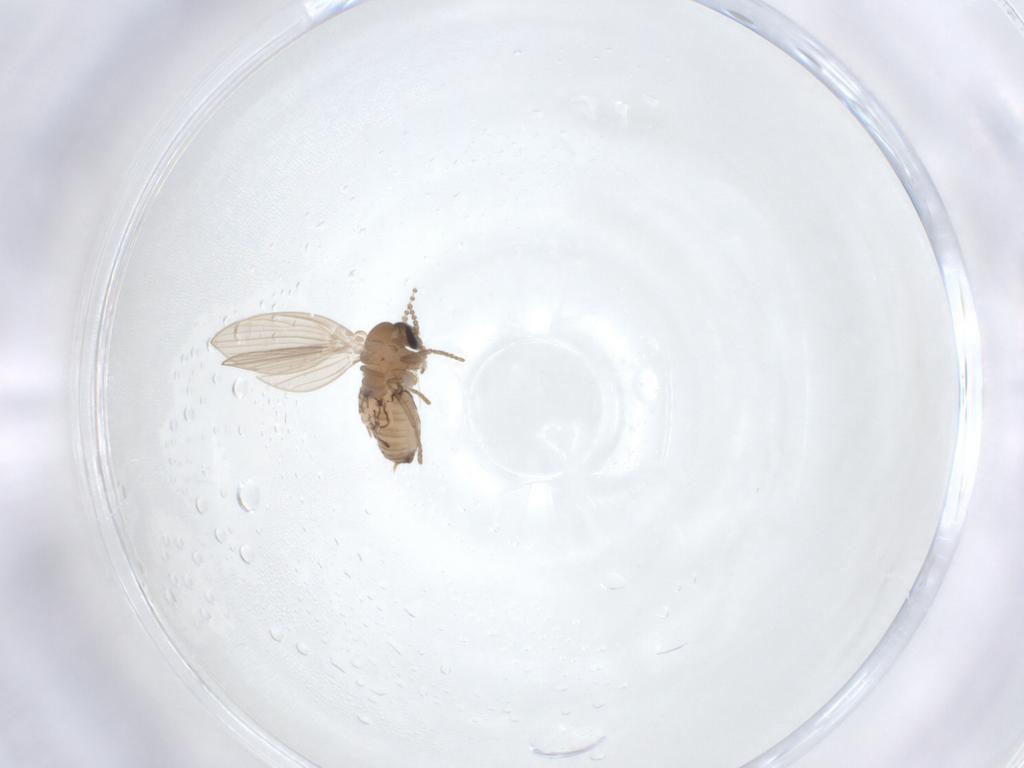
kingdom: Animalia
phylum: Arthropoda
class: Insecta
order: Diptera
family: Psychodidae
